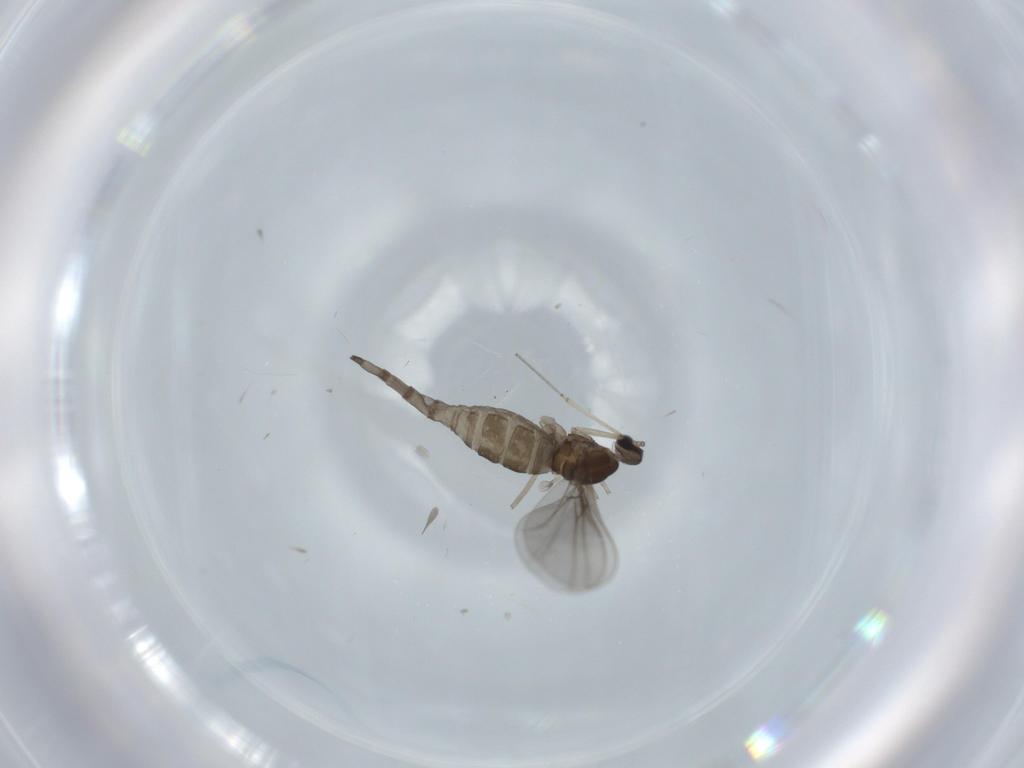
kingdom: Animalia
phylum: Arthropoda
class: Insecta
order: Diptera
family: Cecidomyiidae
